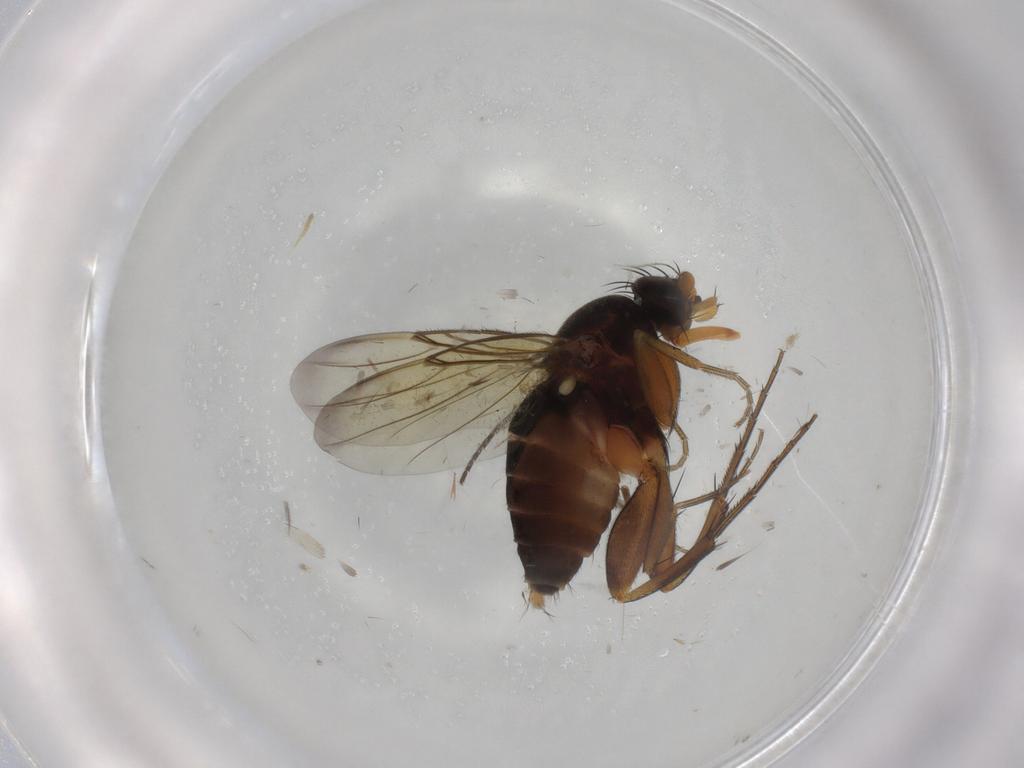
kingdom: Animalia
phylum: Arthropoda
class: Insecta
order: Diptera
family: Phoridae
